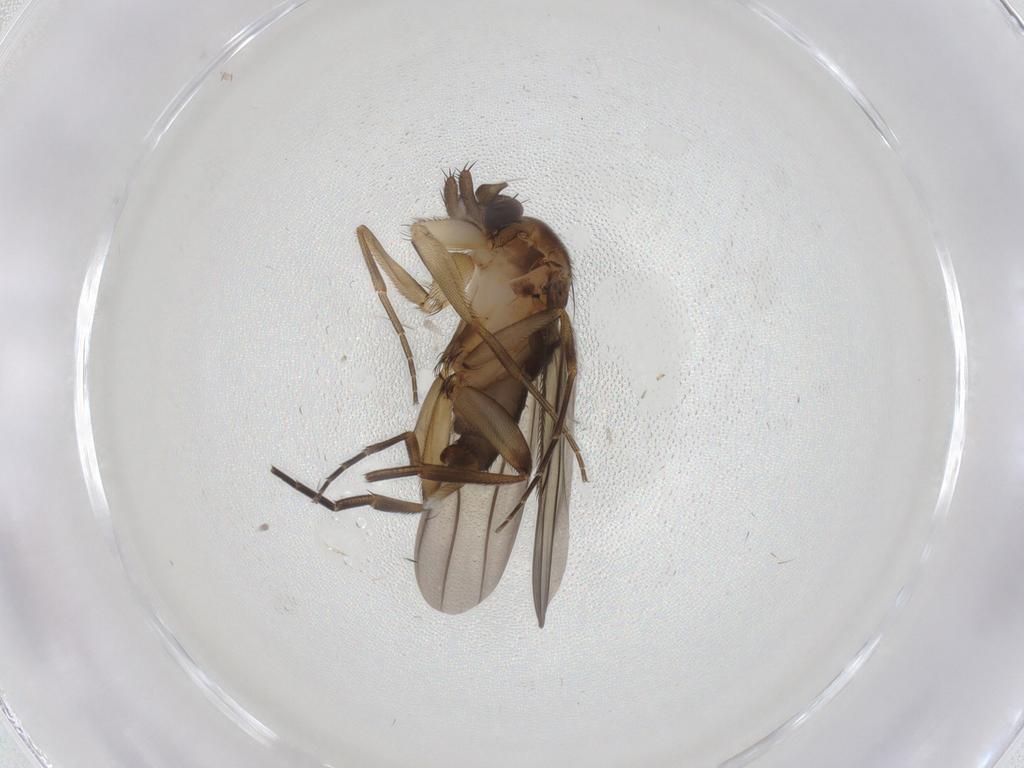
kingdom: Animalia
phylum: Arthropoda
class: Insecta
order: Diptera
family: Phoridae
